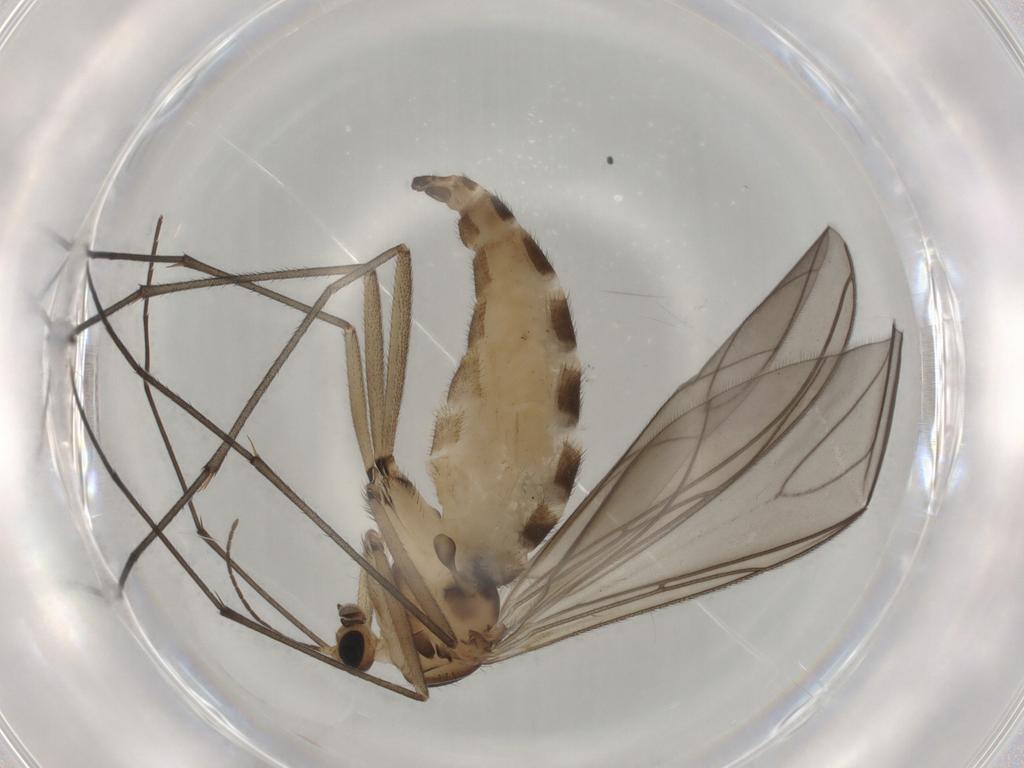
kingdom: Animalia
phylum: Arthropoda
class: Insecta
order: Diptera
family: Sciaridae
